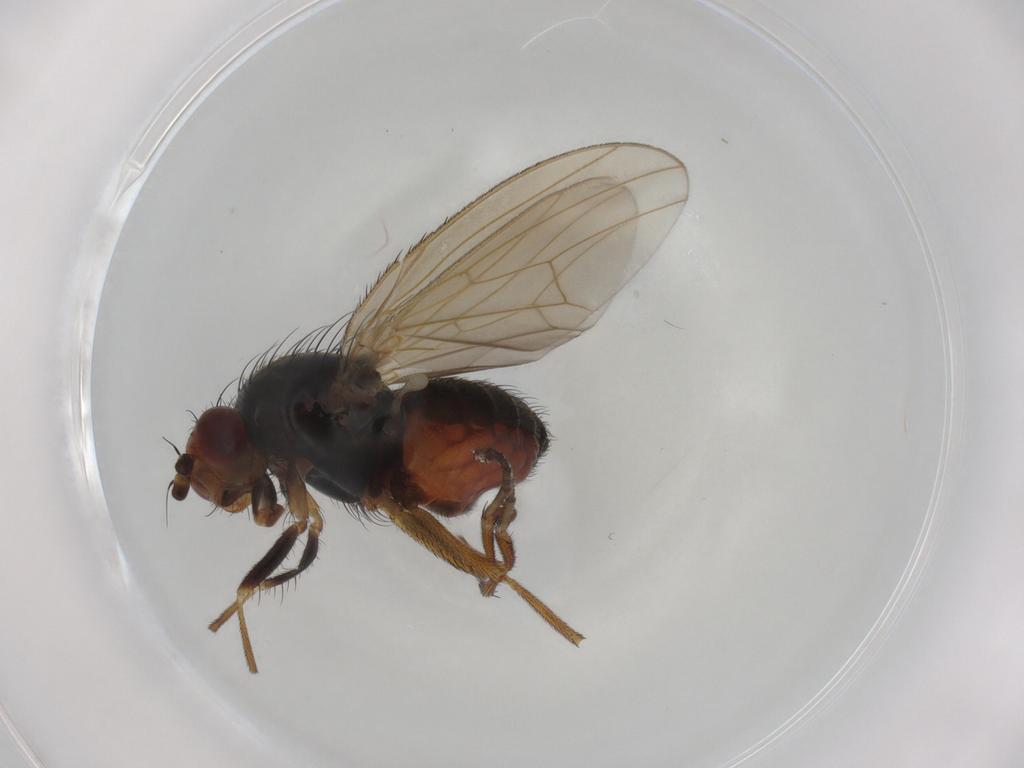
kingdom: Animalia
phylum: Arthropoda
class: Insecta
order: Diptera
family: Heleomyzidae
